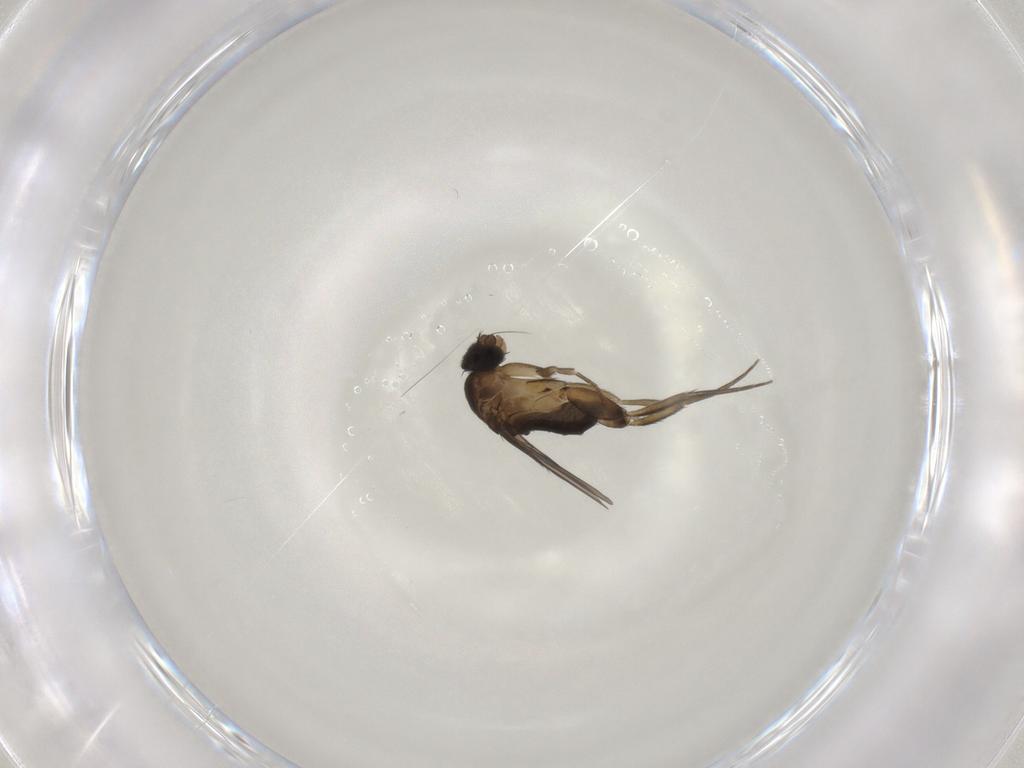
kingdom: Animalia
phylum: Arthropoda
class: Insecta
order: Diptera
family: Phoridae
